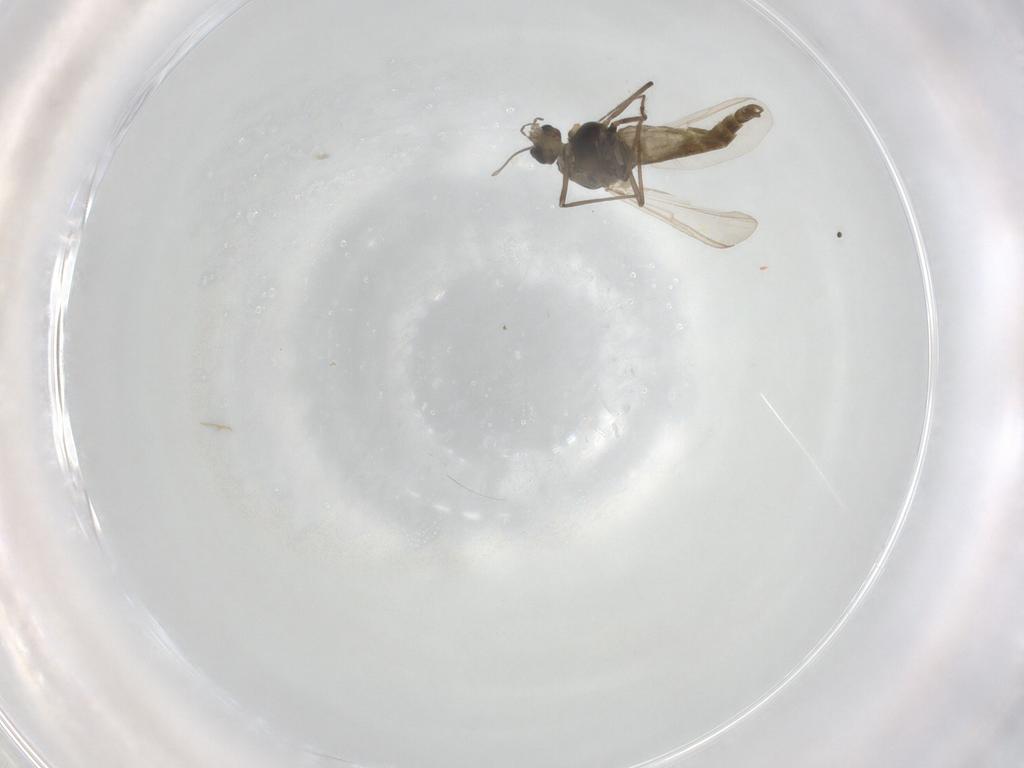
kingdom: Animalia
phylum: Arthropoda
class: Insecta
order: Diptera
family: Chironomidae
